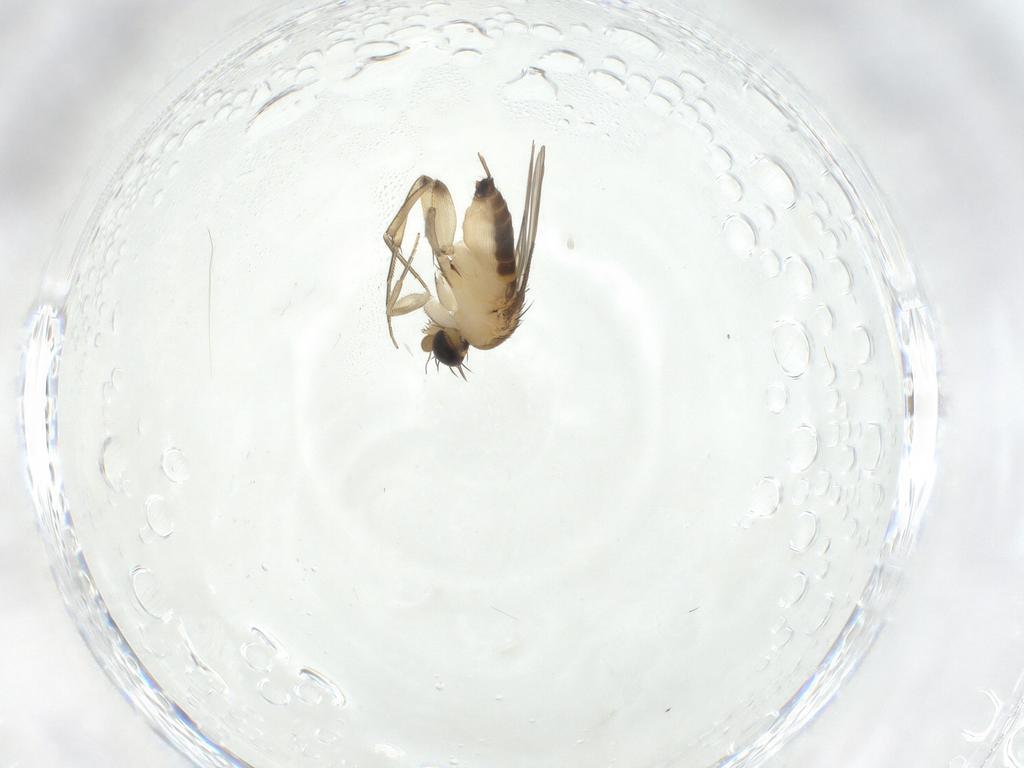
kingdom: Animalia
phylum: Arthropoda
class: Insecta
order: Diptera
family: Phoridae
